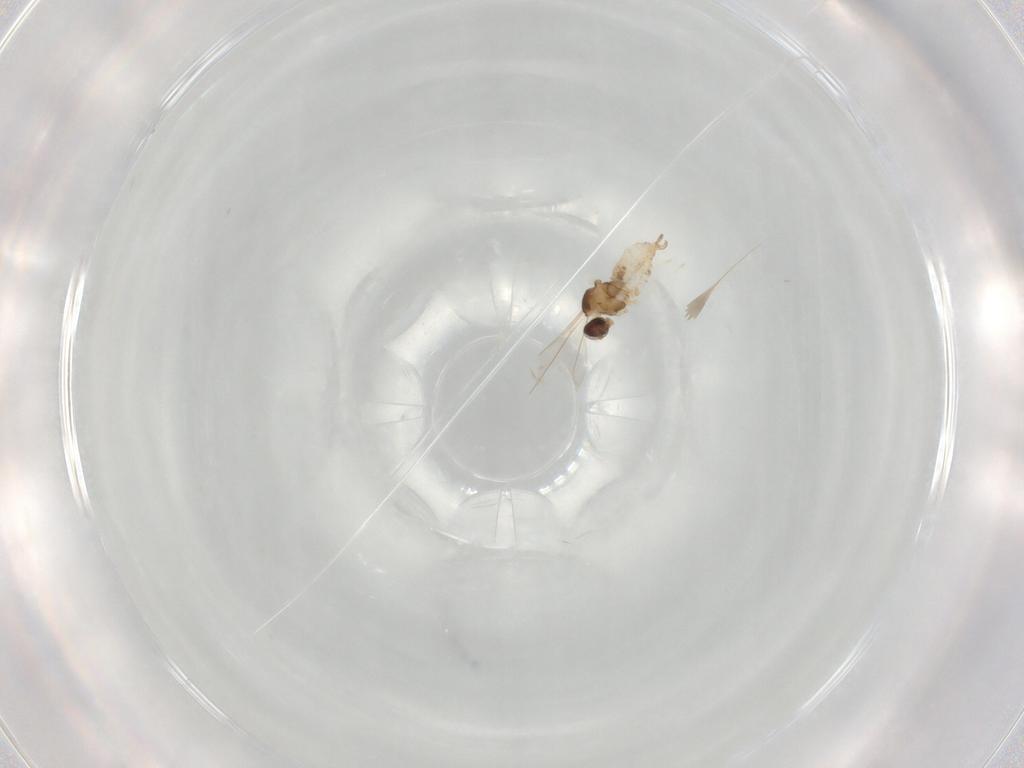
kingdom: Animalia
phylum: Arthropoda
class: Insecta
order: Diptera
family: Cecidomyiidae
